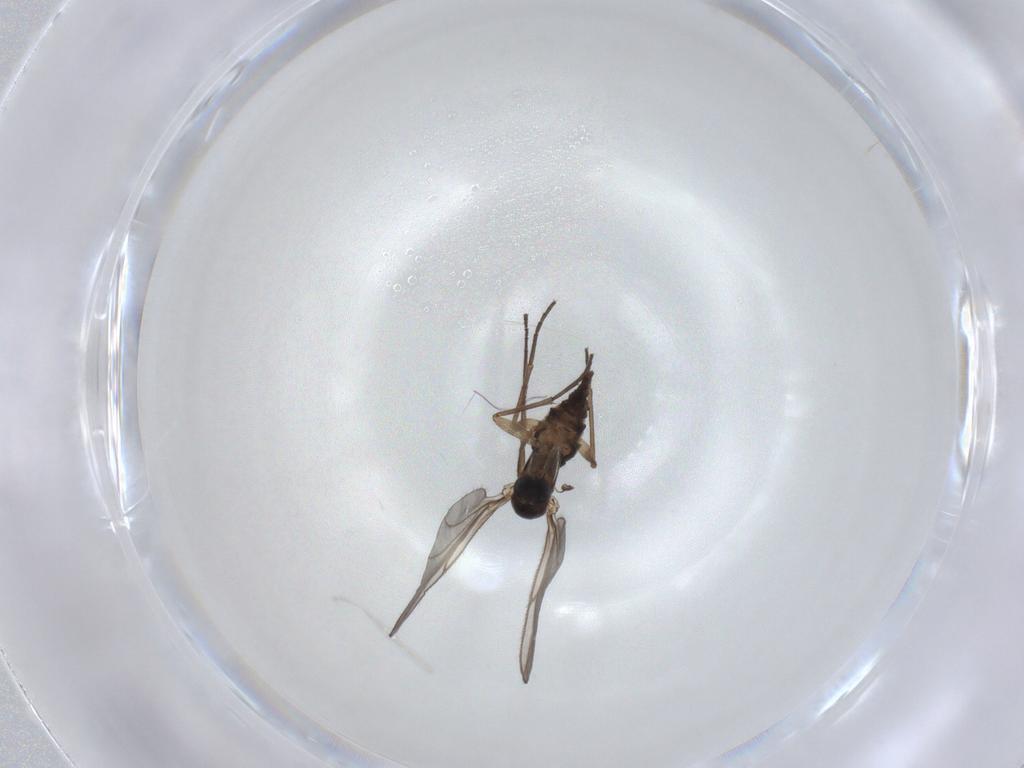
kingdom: Animalia
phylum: Arthropoda
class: Insecta
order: Diptera
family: Sciaridae
